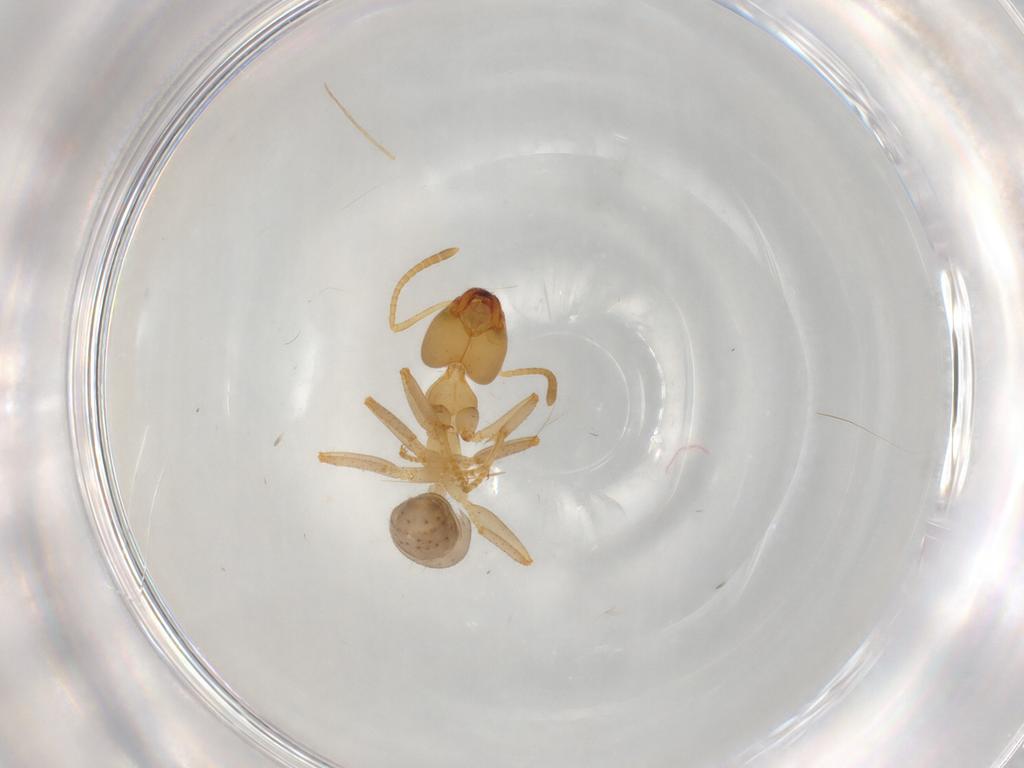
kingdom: Animalia
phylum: Arthropoda
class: Insecta
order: Hymenoptera
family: Formicidae
